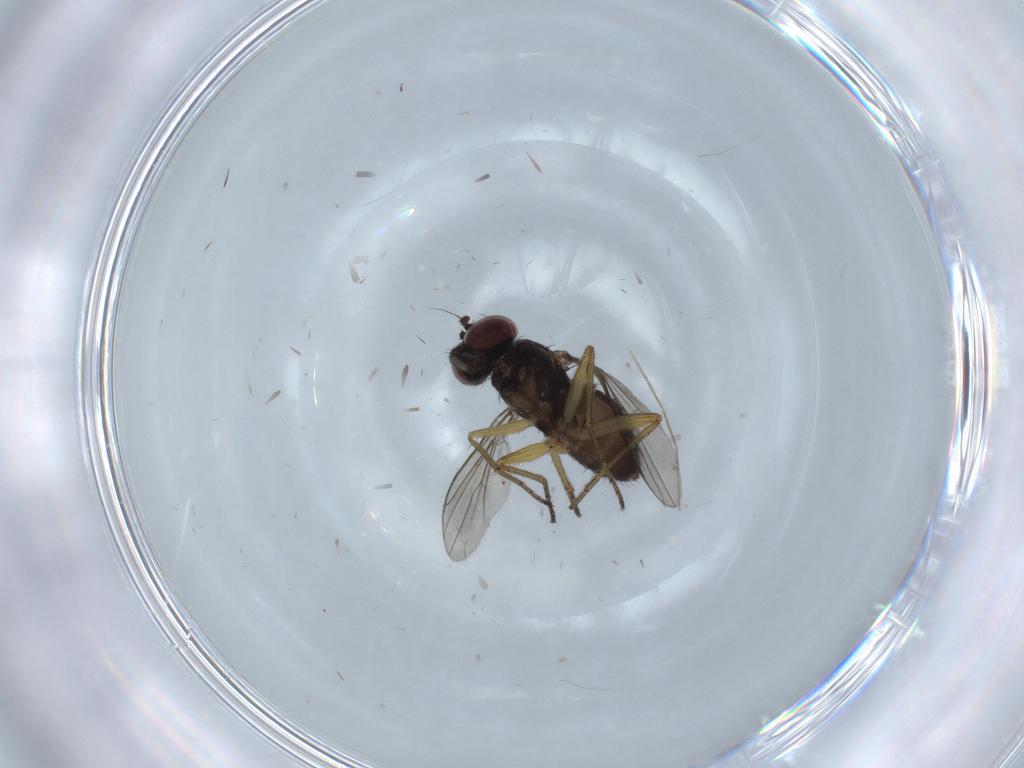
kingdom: Animalia
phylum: Arthropoda
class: Insecta
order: Diptera
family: Dolichopodidae
